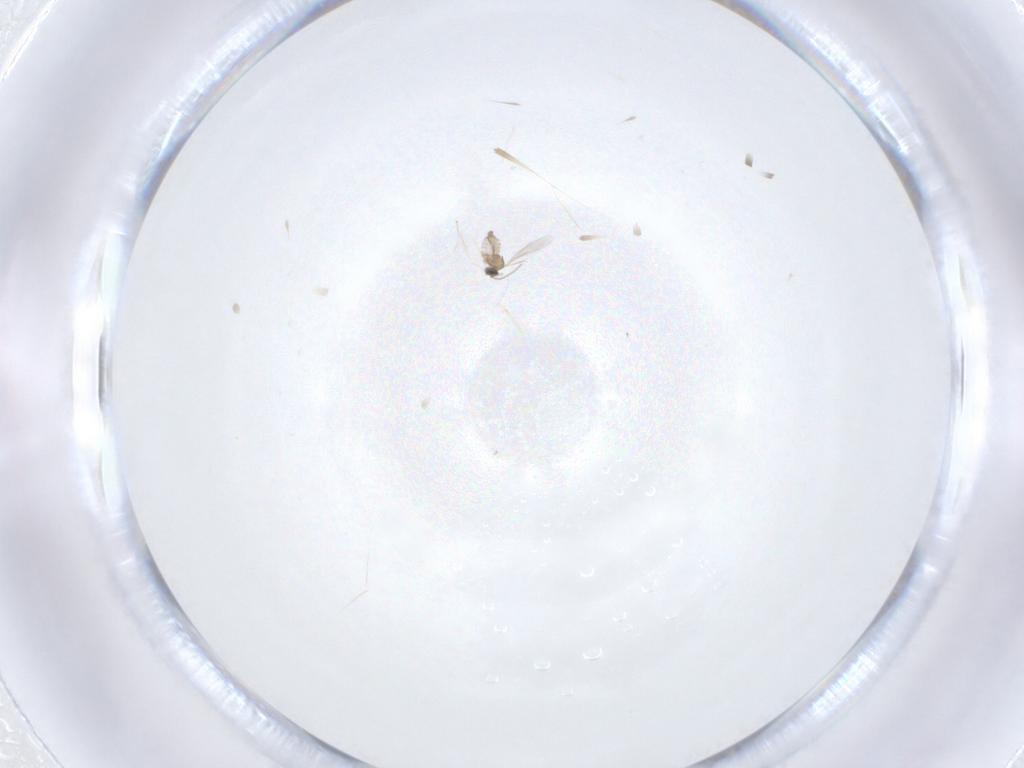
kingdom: Animalia
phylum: Arthropoda
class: Insecta
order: Diptera
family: Cecidomyiidae
